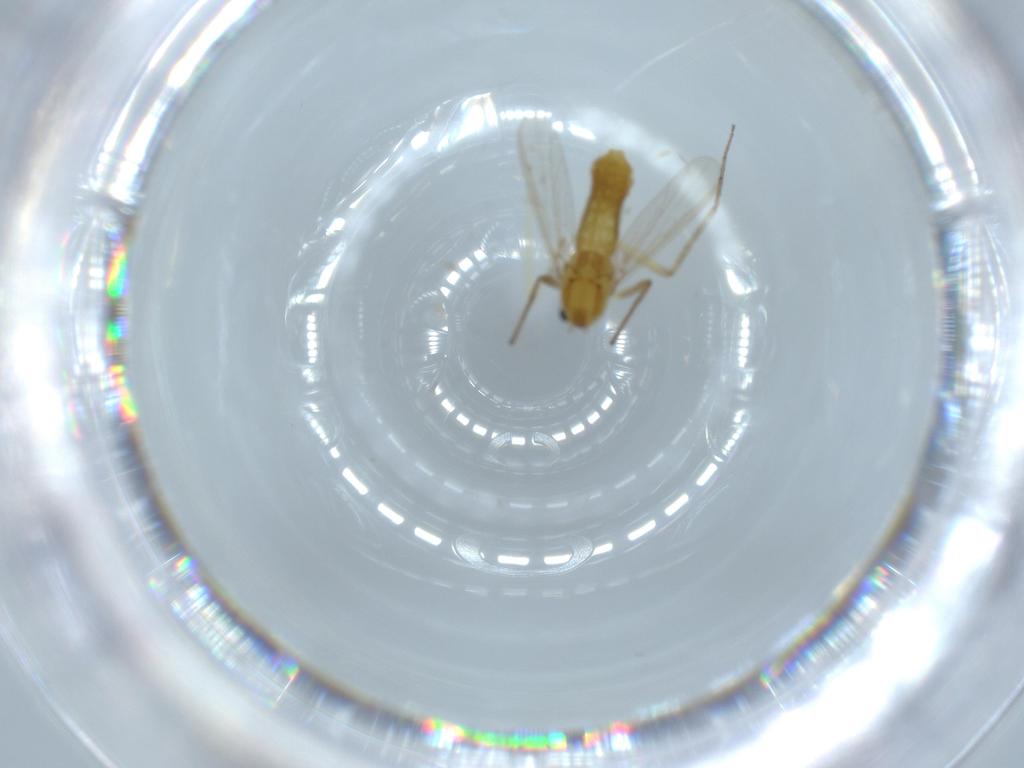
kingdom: Animalia
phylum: Arthropoda
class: Insecta
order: Diptera
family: Chironomidae
